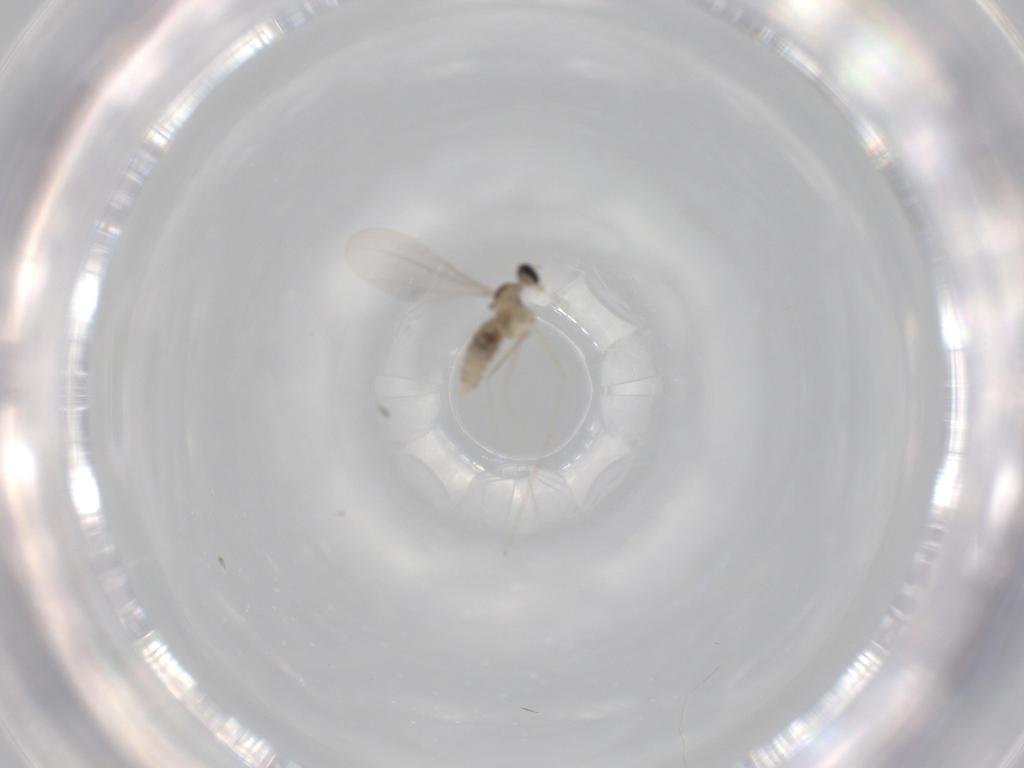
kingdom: Animalia
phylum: Arthropoda
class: Insecta
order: Diptera
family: Cecidomyiidae
